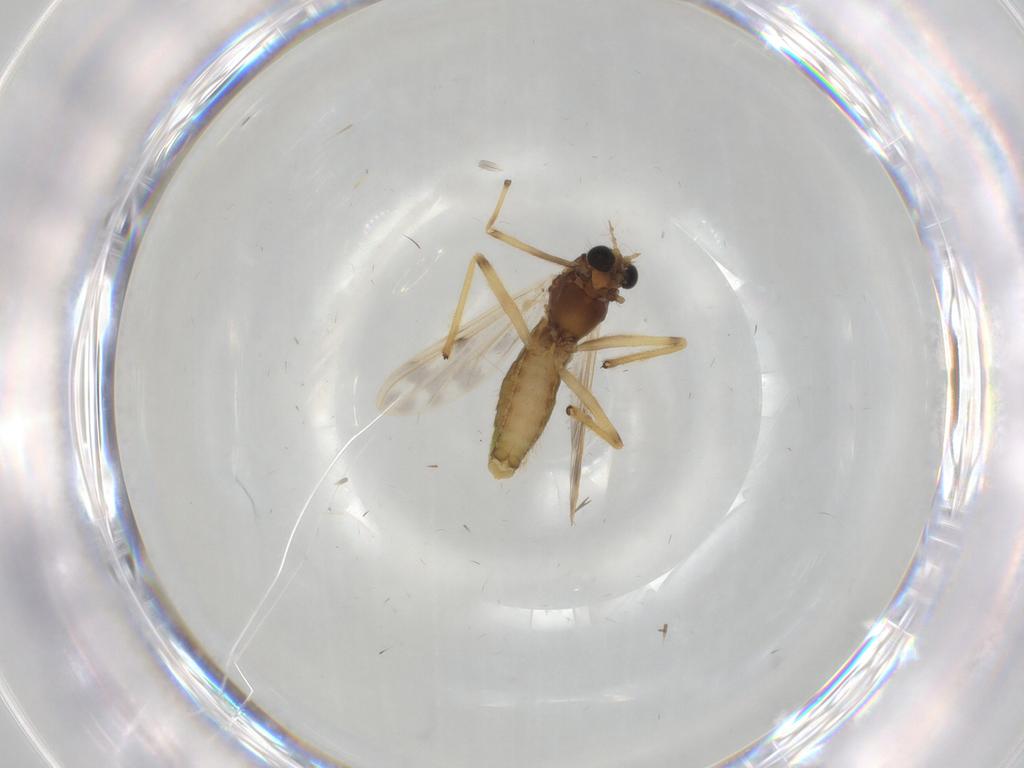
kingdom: Animalia
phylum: Arthropoda
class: Insecta
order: Diptera
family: Chironomidae
